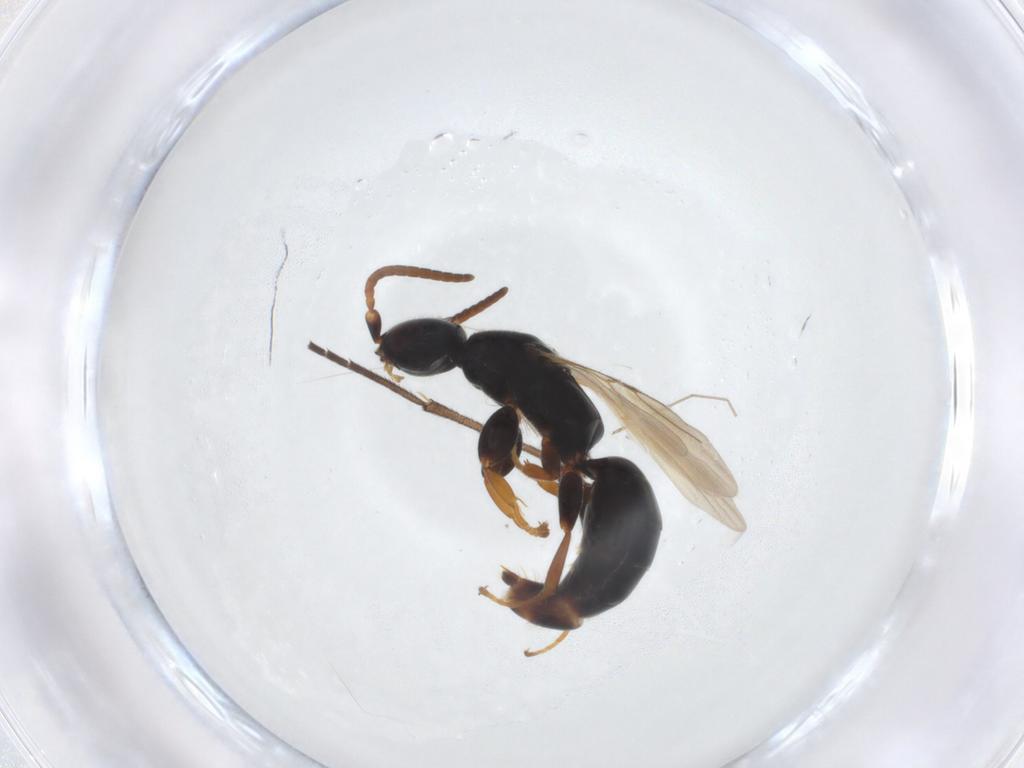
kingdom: Animalia
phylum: Arthropoda
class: Insecta
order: Hymenoptera
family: Bethylidae
